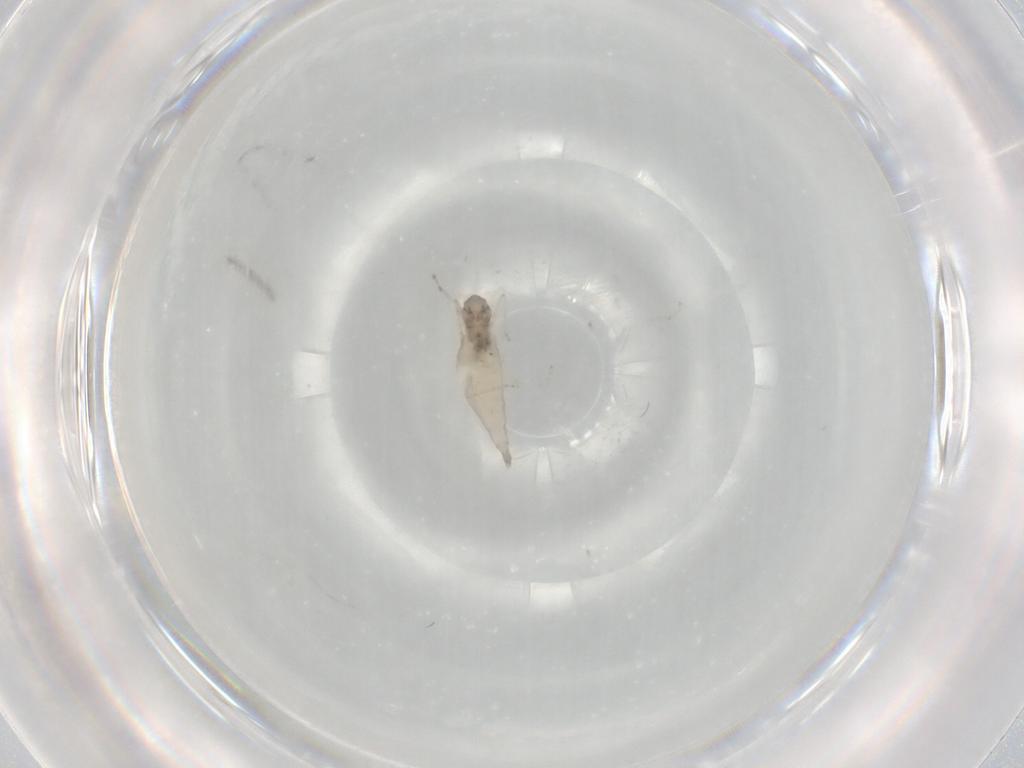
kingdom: Animalia
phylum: Arthropoda
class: Insecta
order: Diptera
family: Cecidomyiidae
